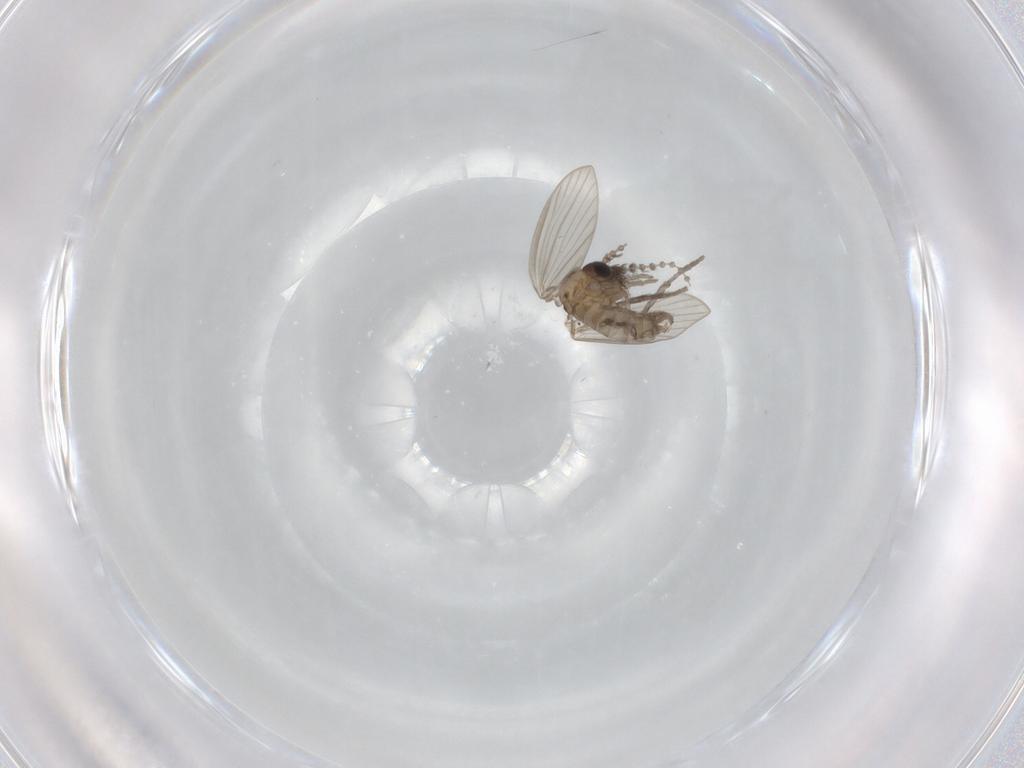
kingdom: Animalia
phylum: Arthropoda
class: Insecta
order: Diptera
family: Psychodidae
